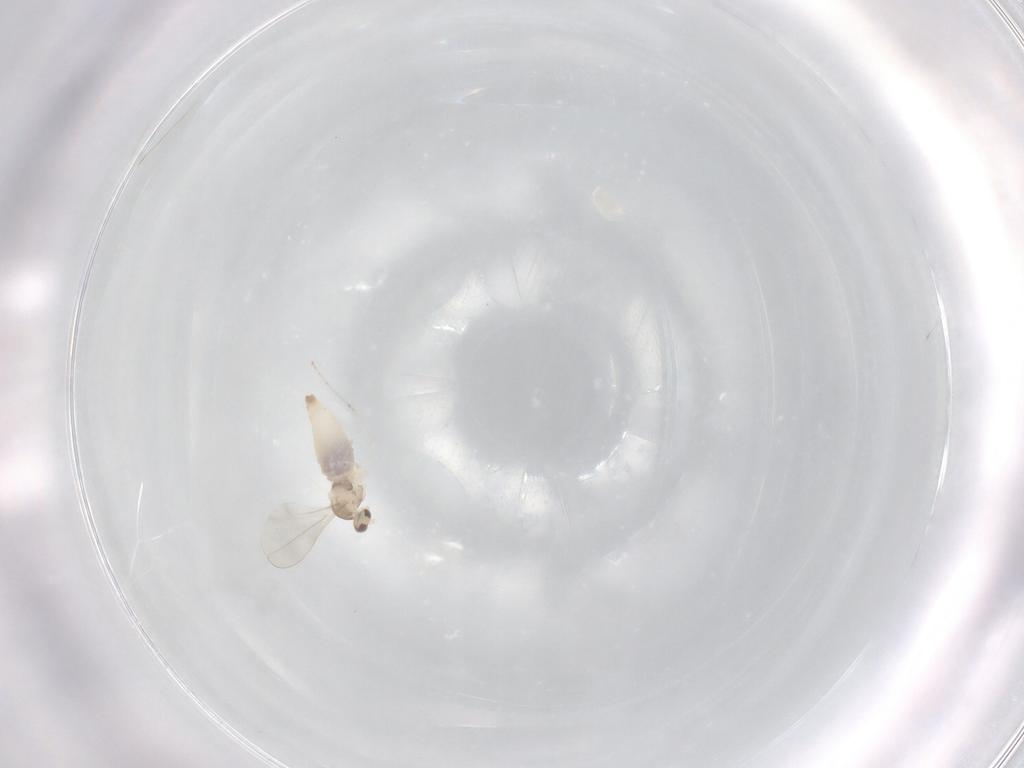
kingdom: Animalia
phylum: Arthropoda
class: Insecta
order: Diptera
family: Cecidomyiidae
